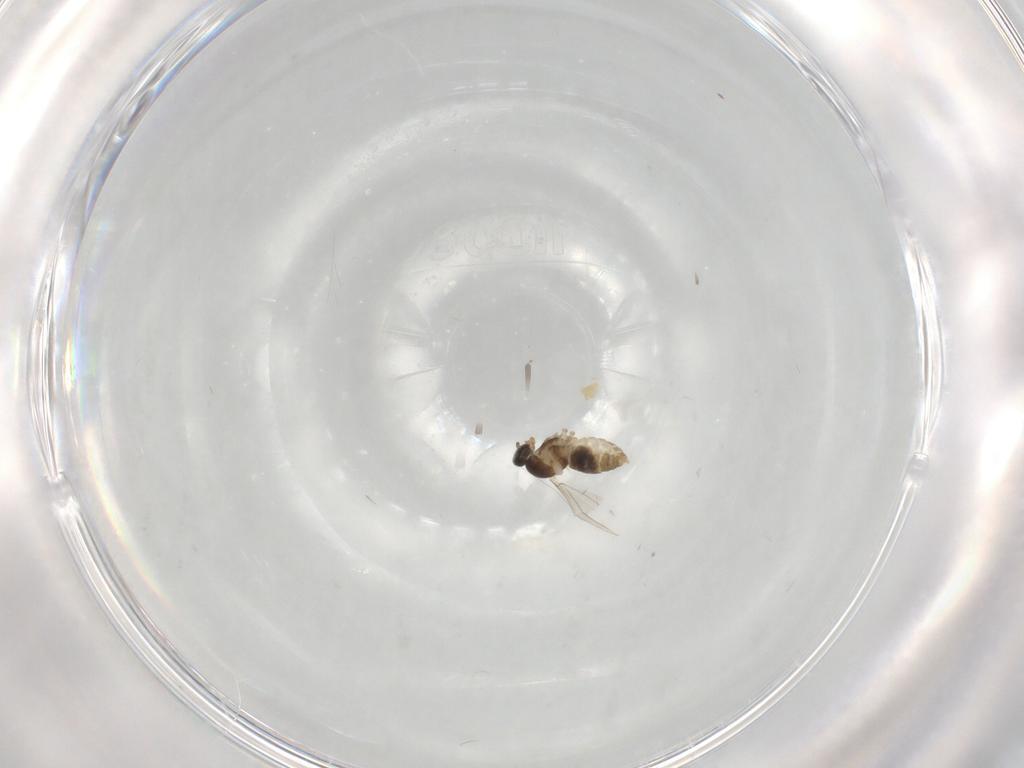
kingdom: Animalia
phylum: Arthropoda
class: Insecta
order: Diptera
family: Cecidomyiidae
